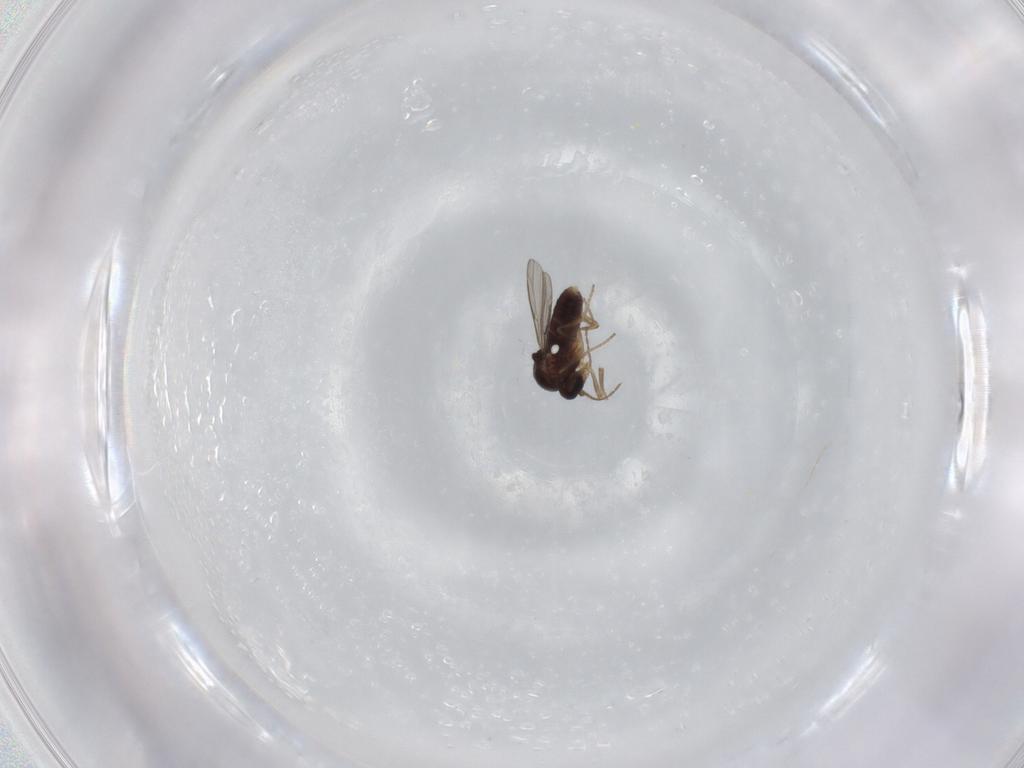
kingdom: Animalia
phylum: Arthropoda
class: Insecta
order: Diptera
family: Ceratopogonidae
